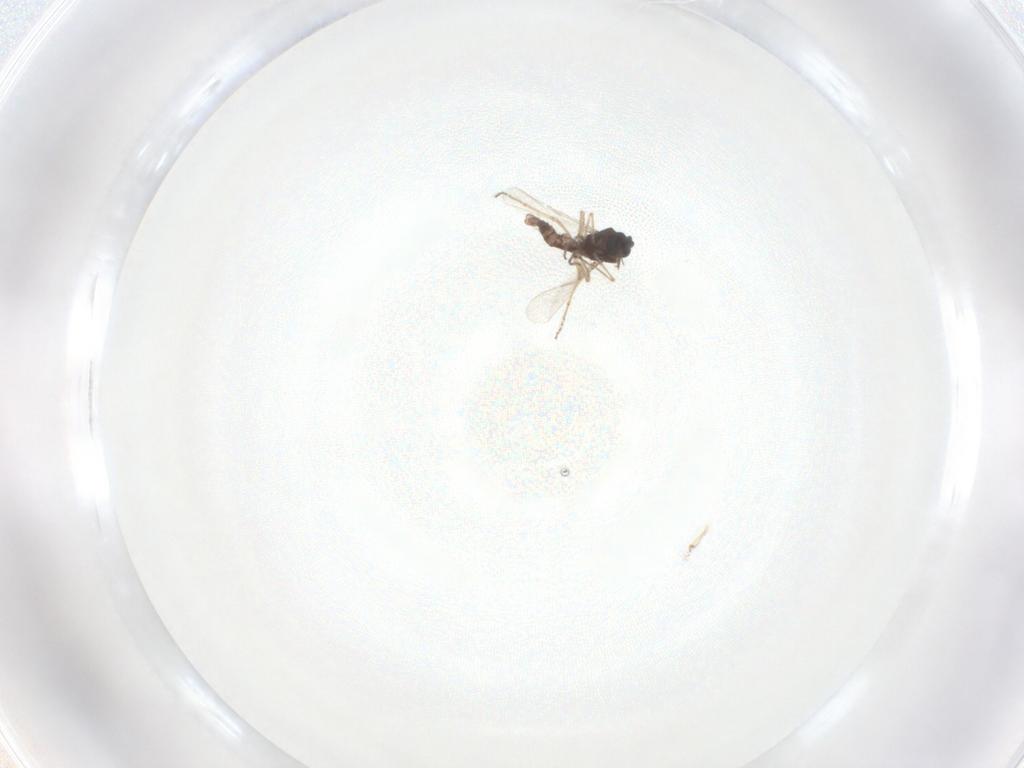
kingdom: Animalia
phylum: Arthropoda
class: Insecta
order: Diptera
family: Ceratopogonidae
